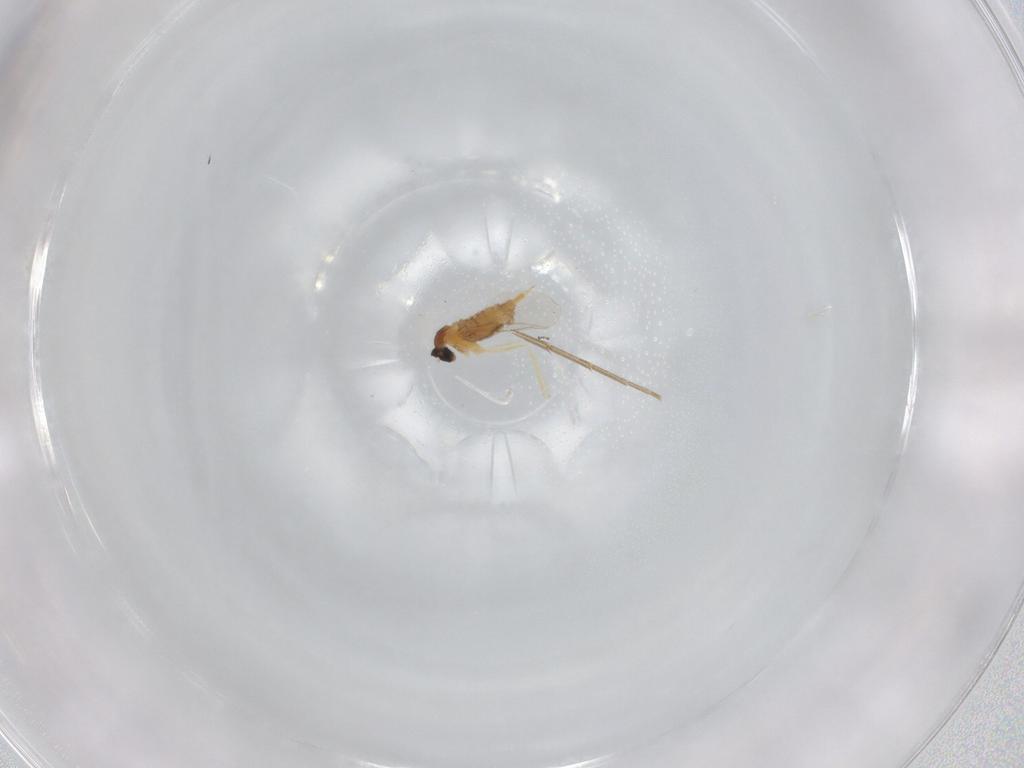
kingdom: Animalia
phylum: Arthropoda
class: Insecta
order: Diptera
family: Cecidomyiidae
